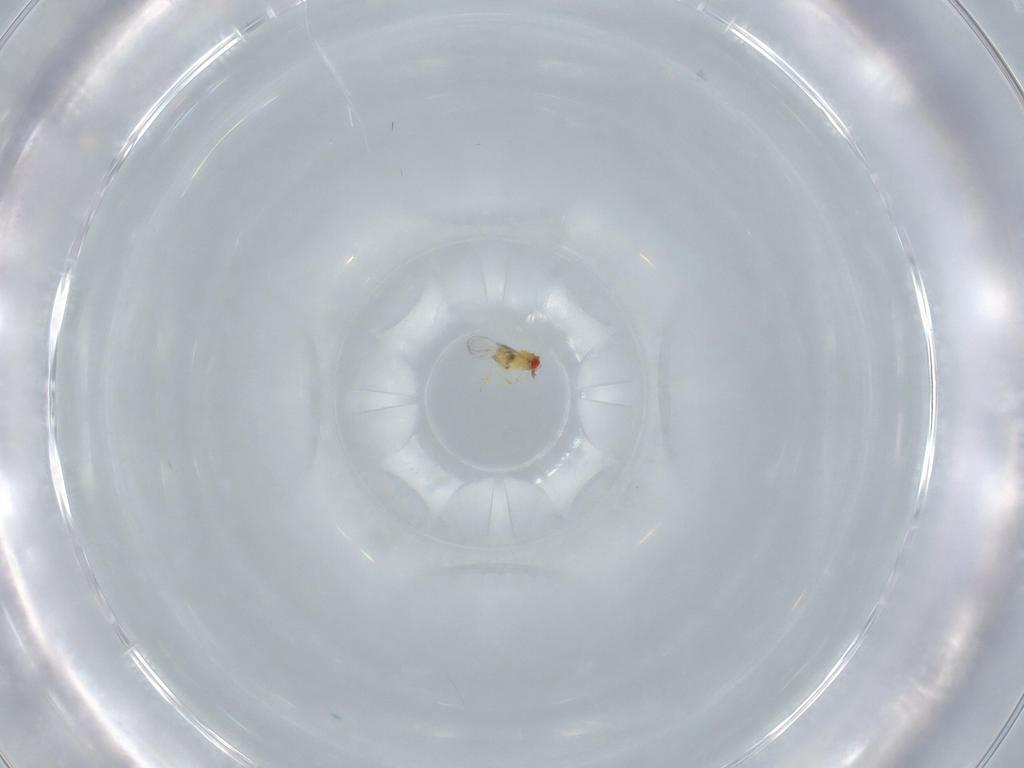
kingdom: Animalia
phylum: Arthropoda
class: Insecta
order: Hymenoptera
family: Trichogrammatidae
